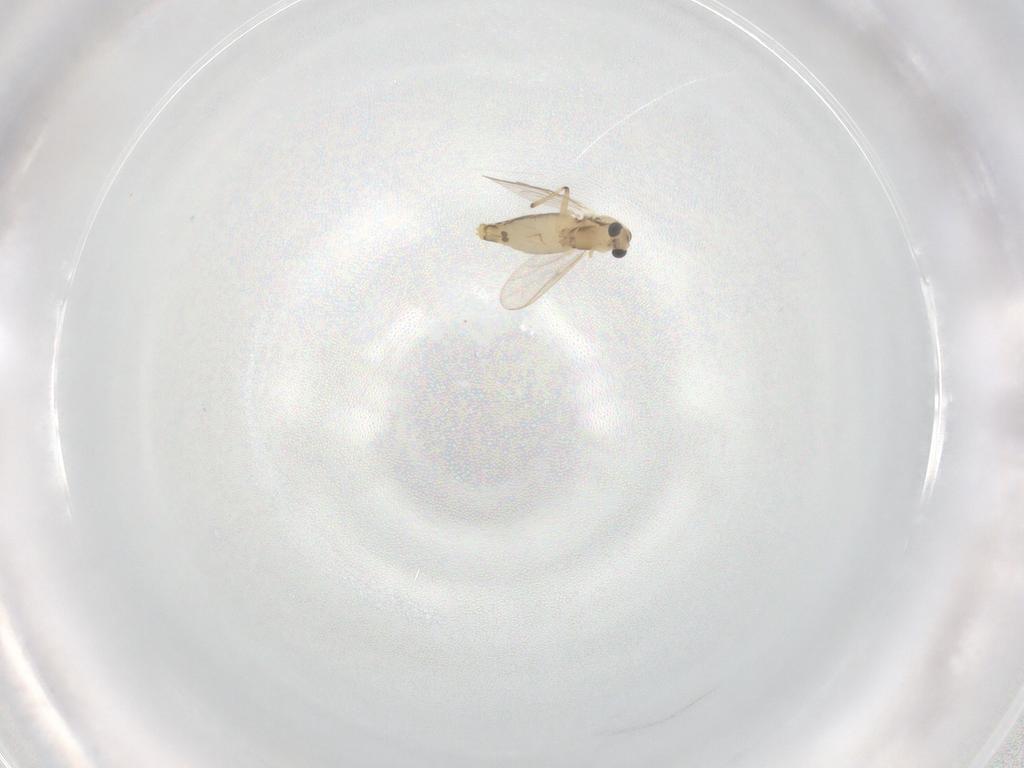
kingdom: Animalia
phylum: Arthropoda
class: Insecta
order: Diptera
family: Chironomidae
